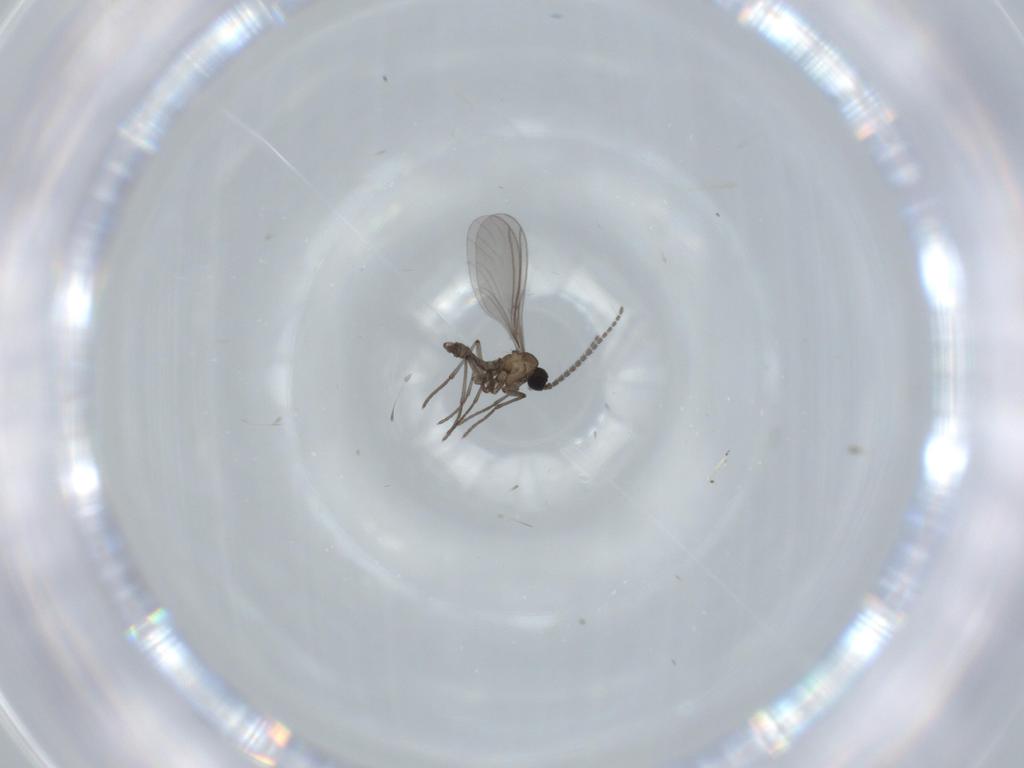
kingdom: Animalia
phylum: Arthropoda
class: Insecta
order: Diptera
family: Sciaridae
